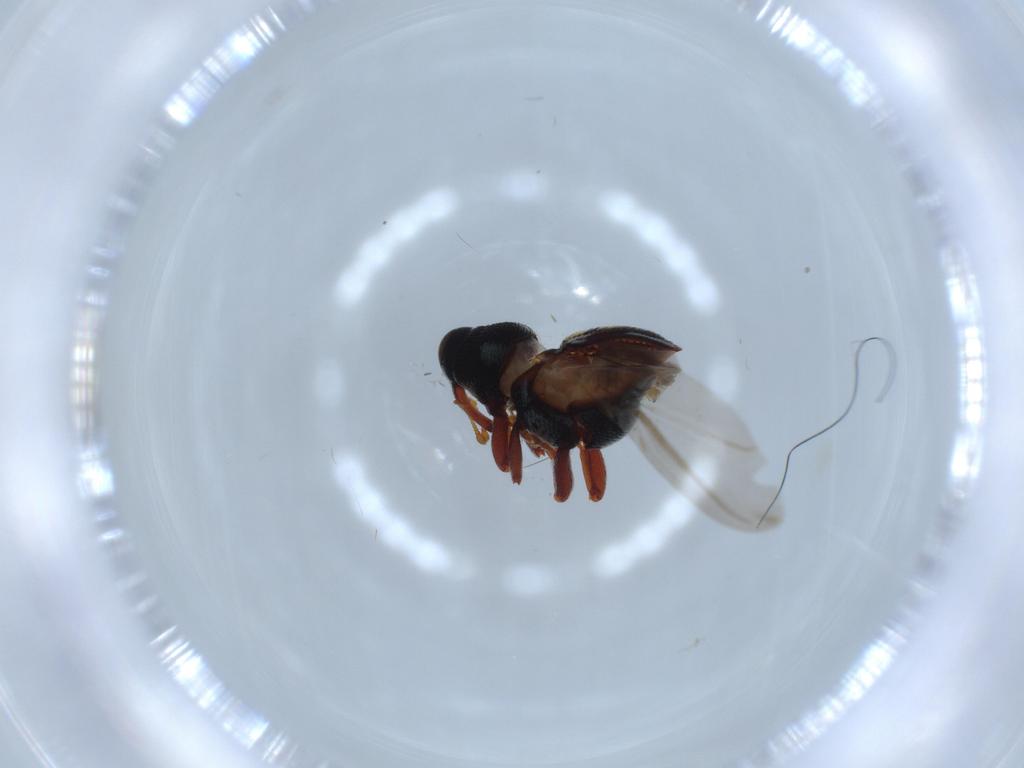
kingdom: Animalia
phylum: Arthropoda
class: Insecta
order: Coleoptera
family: Curculionidae
